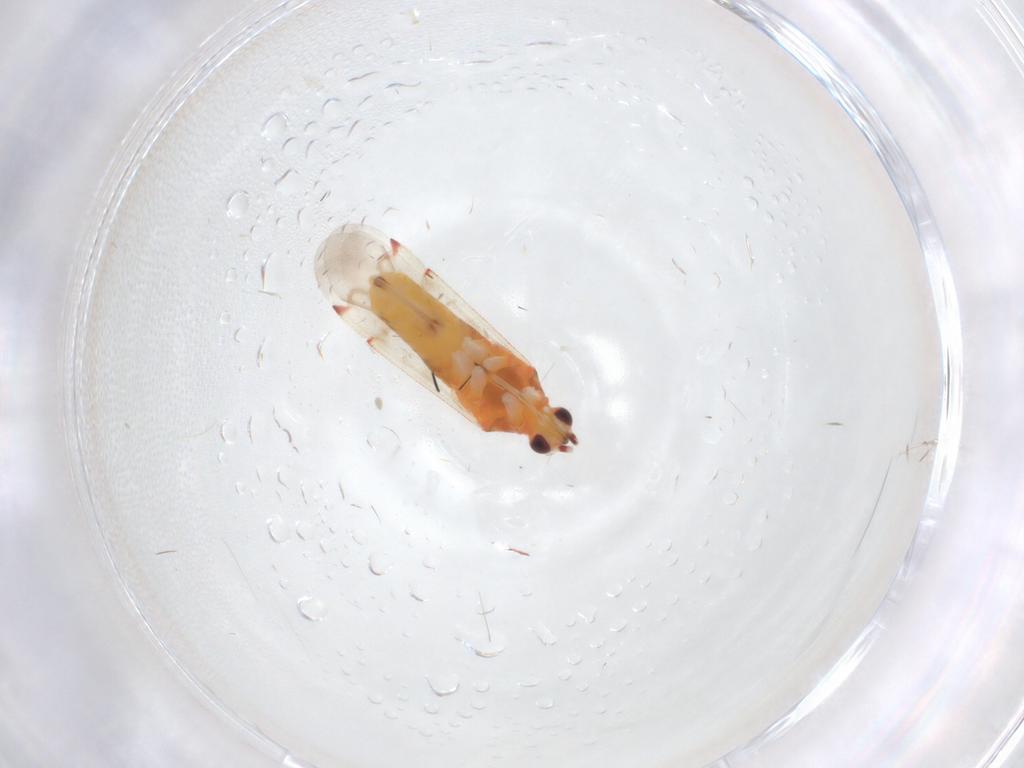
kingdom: Animalia
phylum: Arthropoda
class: Insecta
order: Hemiptera
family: Miridae
